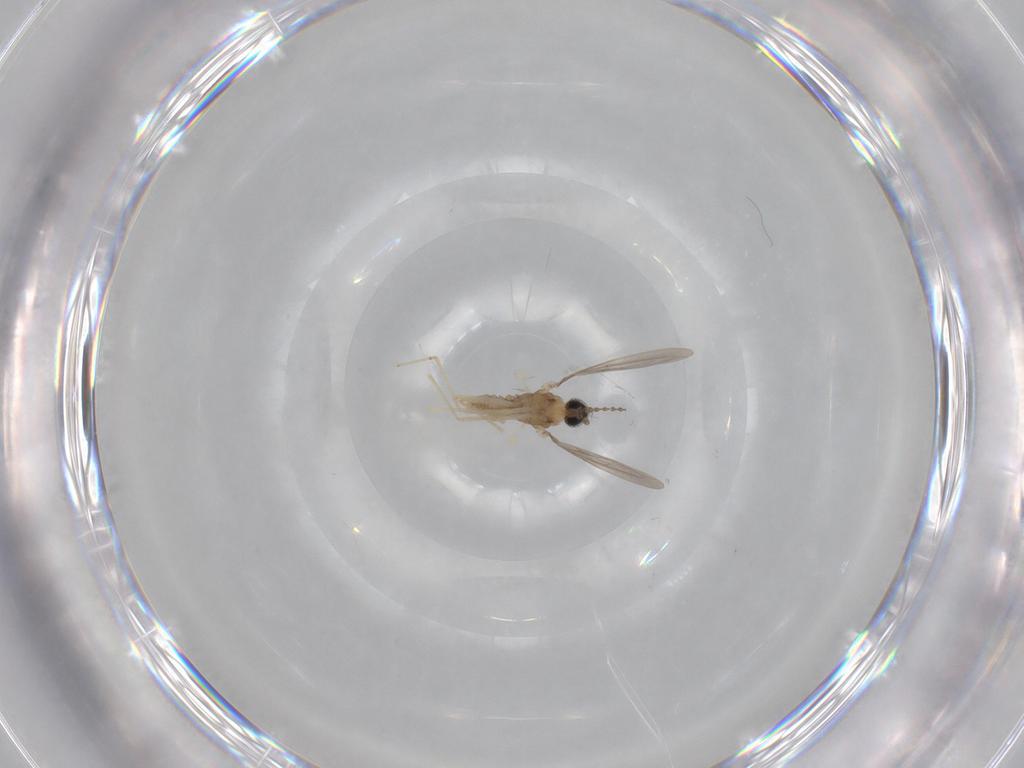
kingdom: Animalia
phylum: Arthropoda
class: Insecta
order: Diptera
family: Cecidomyiidae
